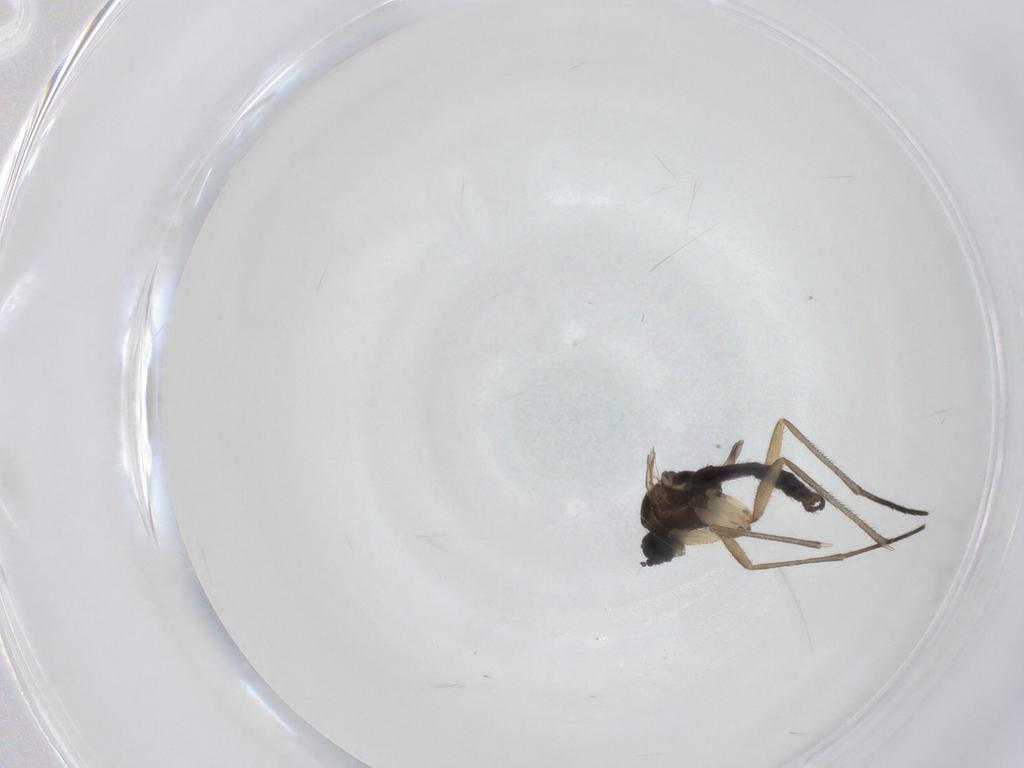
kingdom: Animalia
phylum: Arthropoda
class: Insecta
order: Diptera
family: Sciaridae
